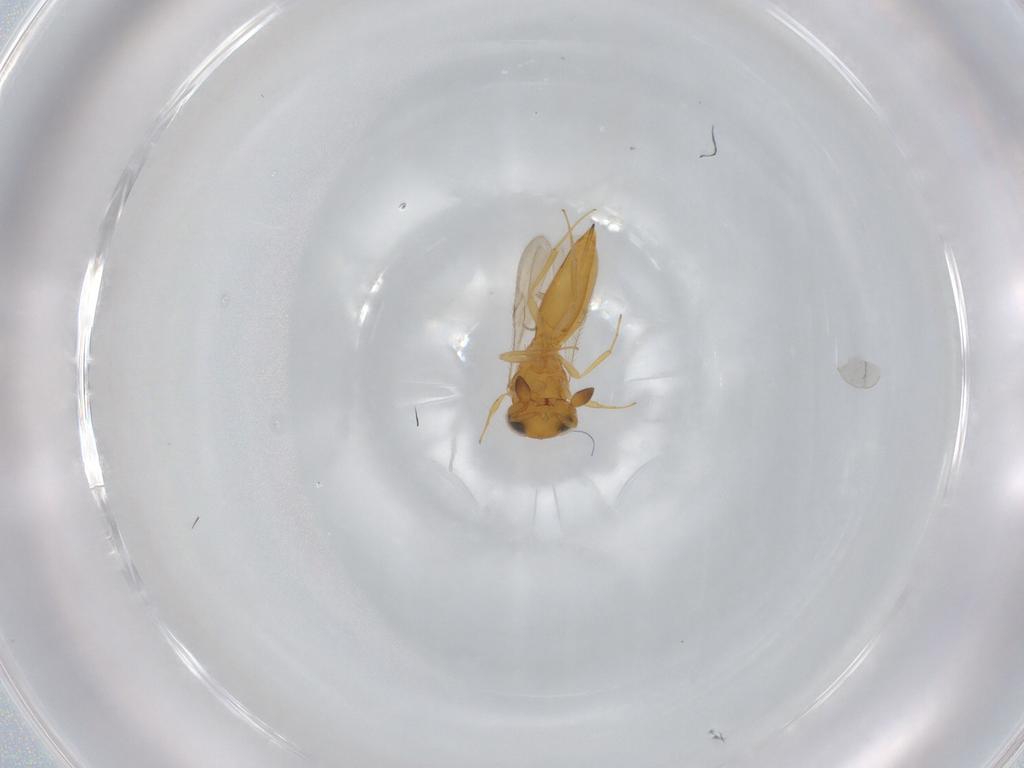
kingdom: Animalia
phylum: Arthropoda
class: Insecta
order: Hymenoptera
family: Scelionidae
